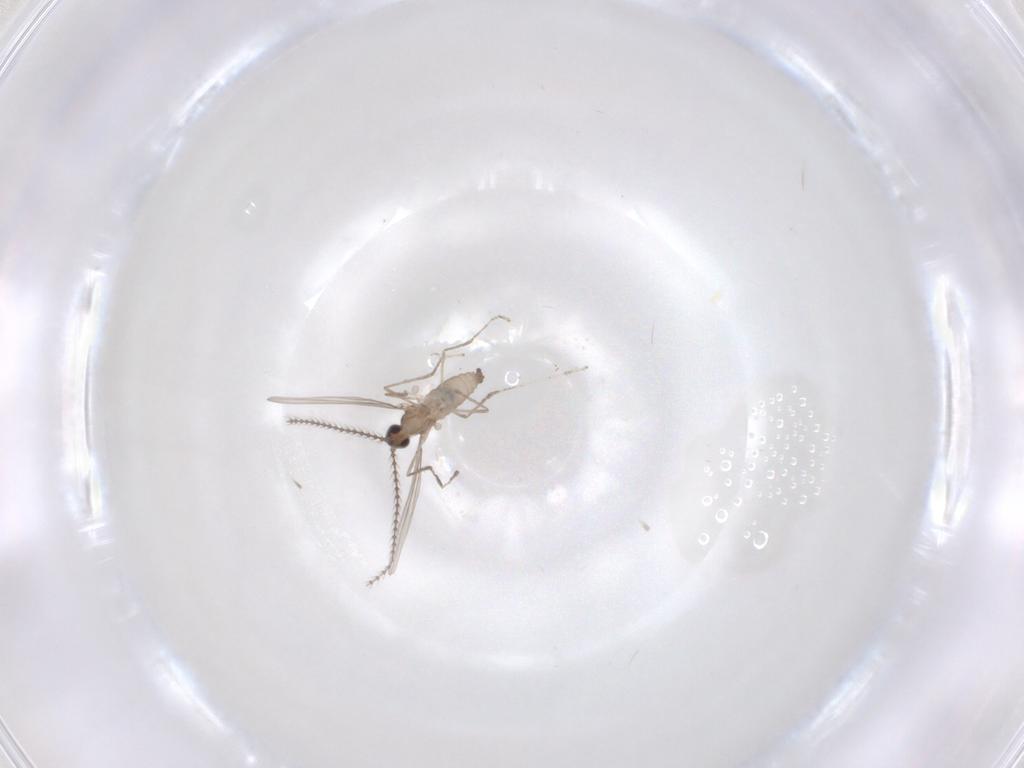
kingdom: Animalia
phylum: Arthropoda
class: Insecta
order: Diptera
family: Cecidomyiidae
